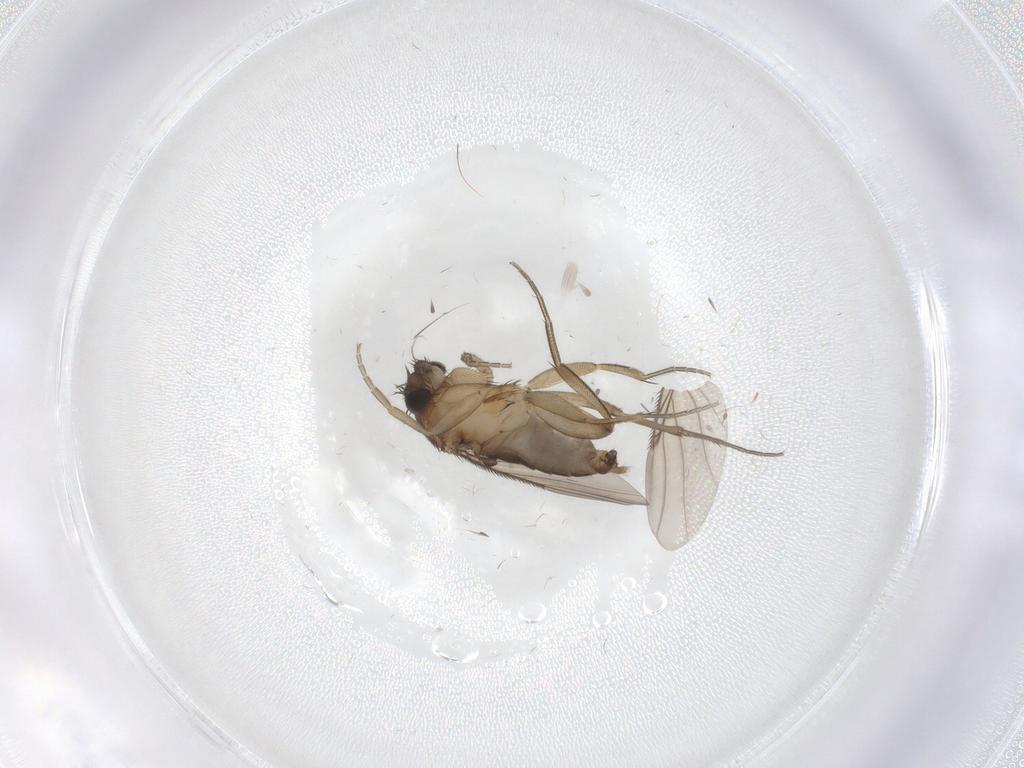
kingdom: Animalia
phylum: Arthropoda
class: Insecta
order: Diptera
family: Phoridae
